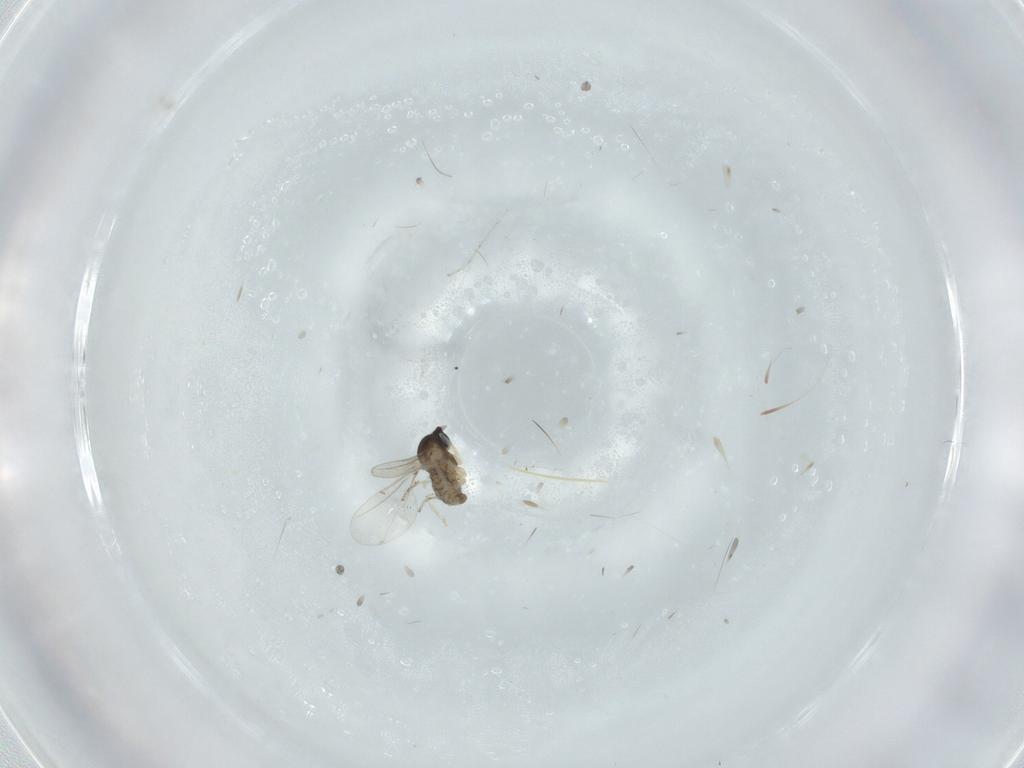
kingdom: Animalia
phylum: Arthropoda
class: Insecta
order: Diptera
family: Cecidomyiidae
